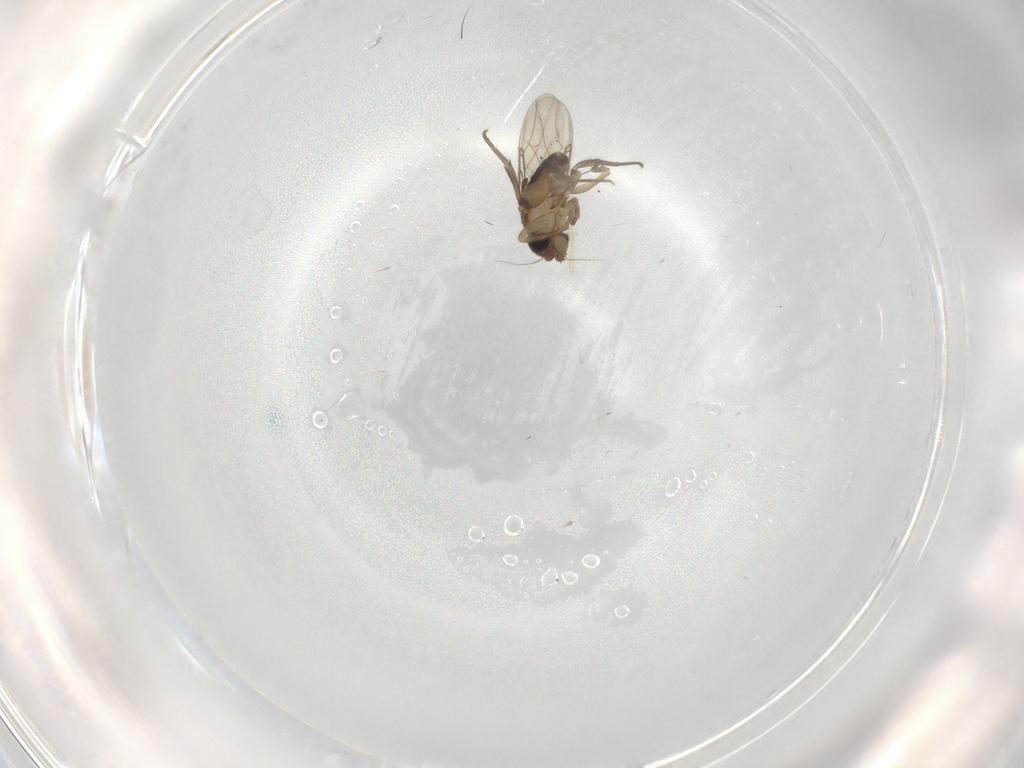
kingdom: Animalia
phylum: Arthropoda
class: Insecta
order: Diptera
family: Phoridae
